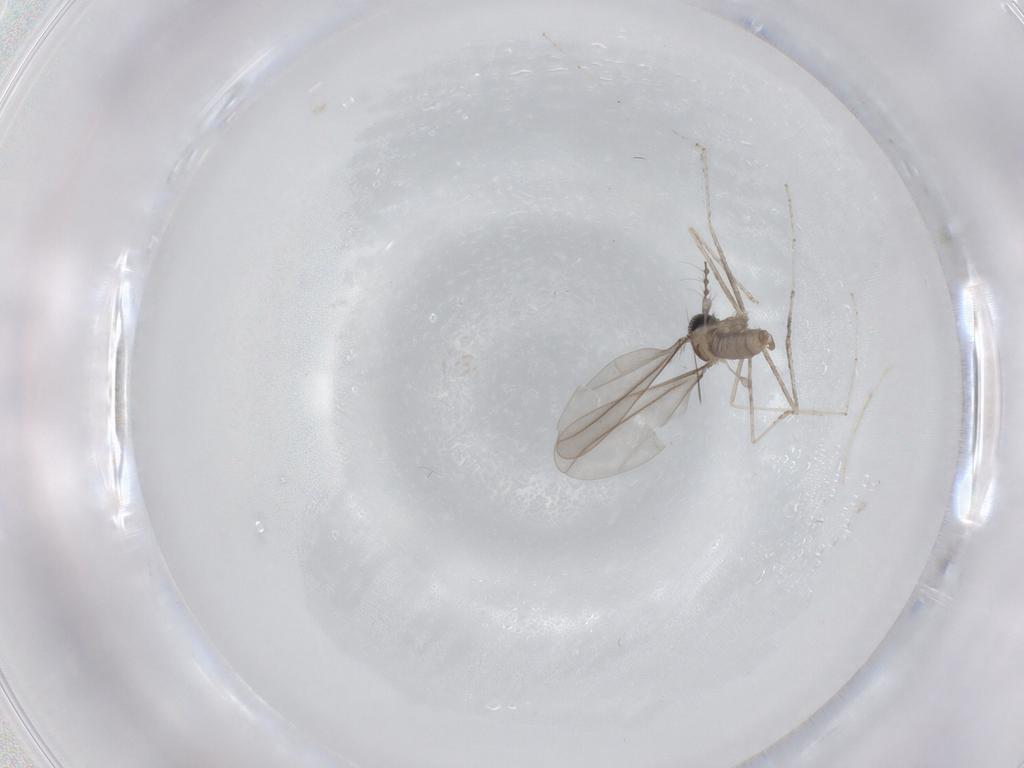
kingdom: Animalia
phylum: Arthropoda
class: Insecta
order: Diptera
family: Cecidomyiidae
